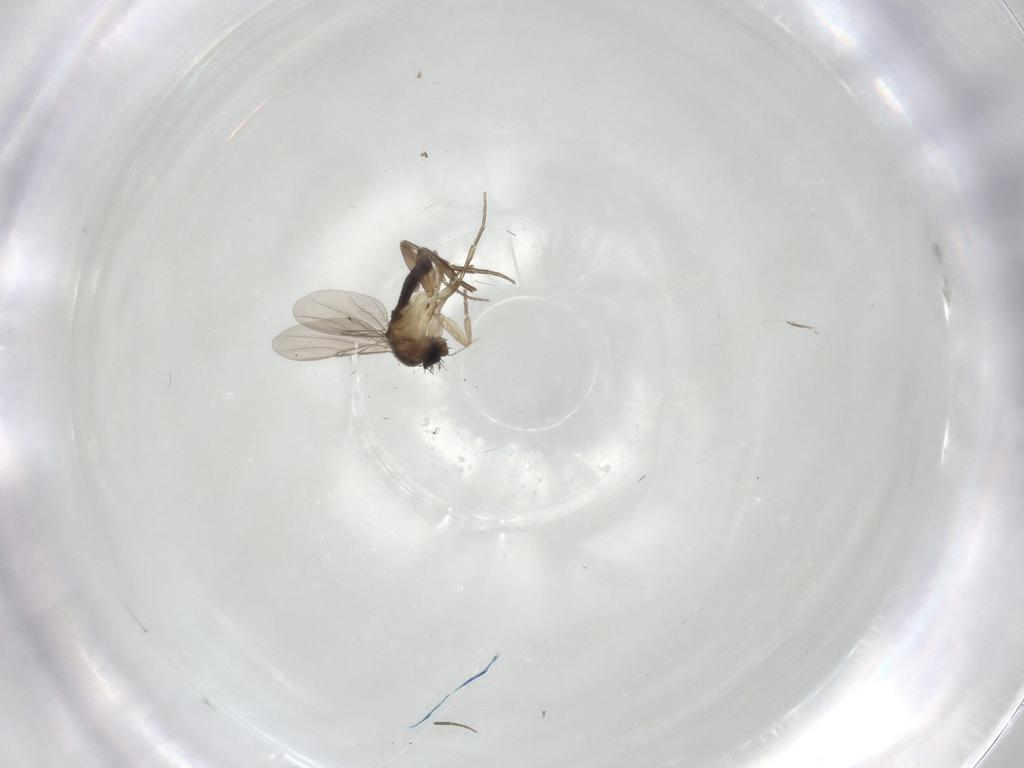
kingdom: Animalia
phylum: Arthropoda
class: Insecta
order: Diptera
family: Phoridae
